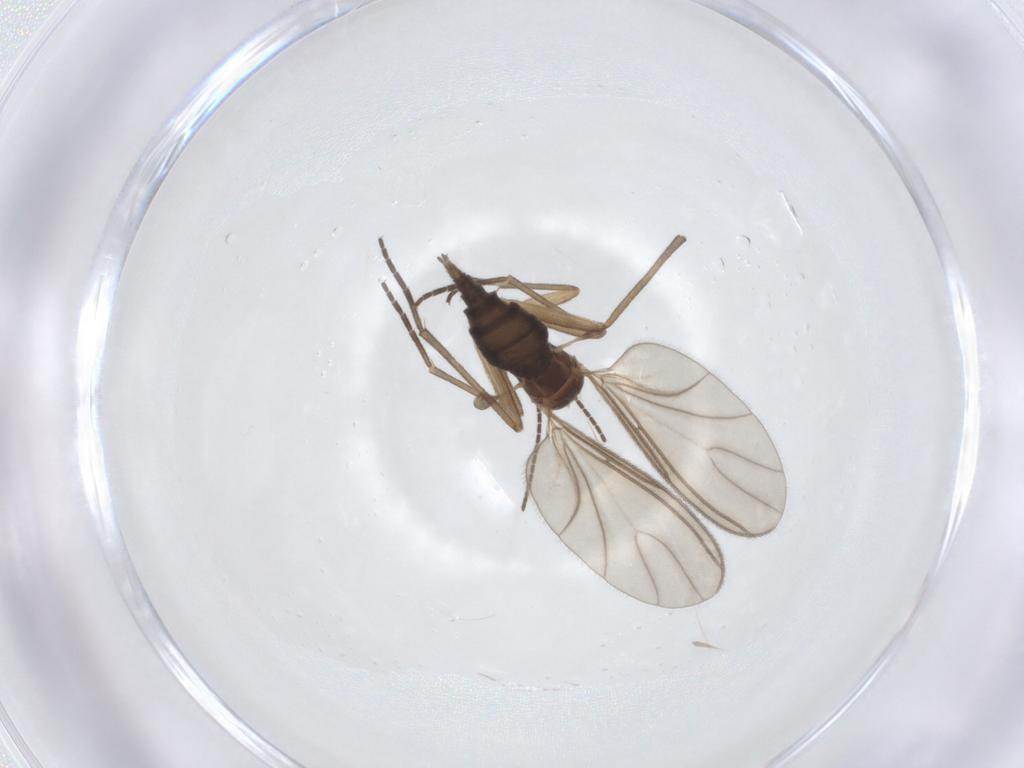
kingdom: Animalia
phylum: Arthropoda
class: Insecta
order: Diptera
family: Sciaridae
